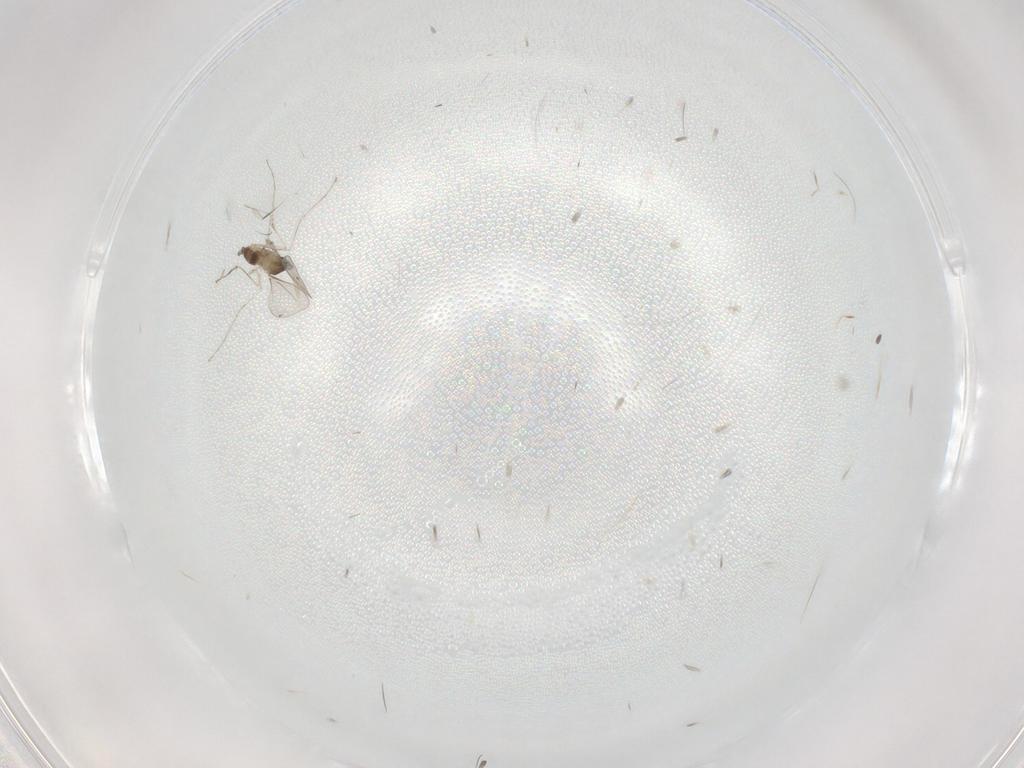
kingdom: Animalia
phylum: Arthropoda
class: Insecta
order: Diptera
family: Cecidomyiidae
